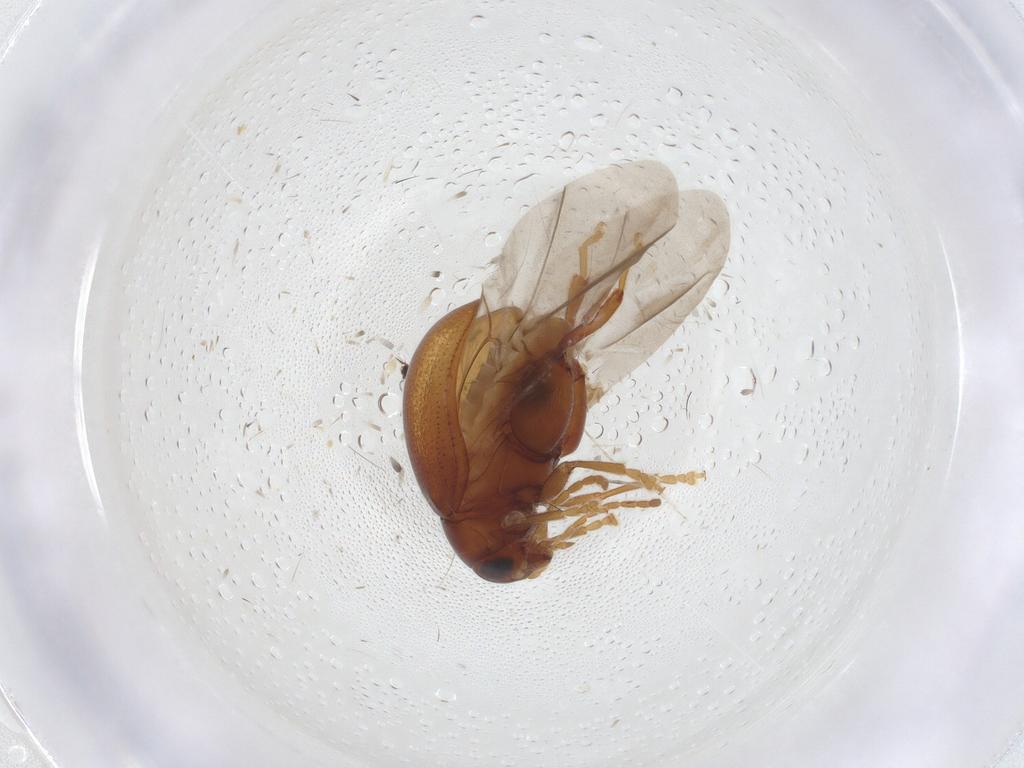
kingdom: Animalia
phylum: Arthropoda
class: Insecta
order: Coleoptera
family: Chrysomelidae
